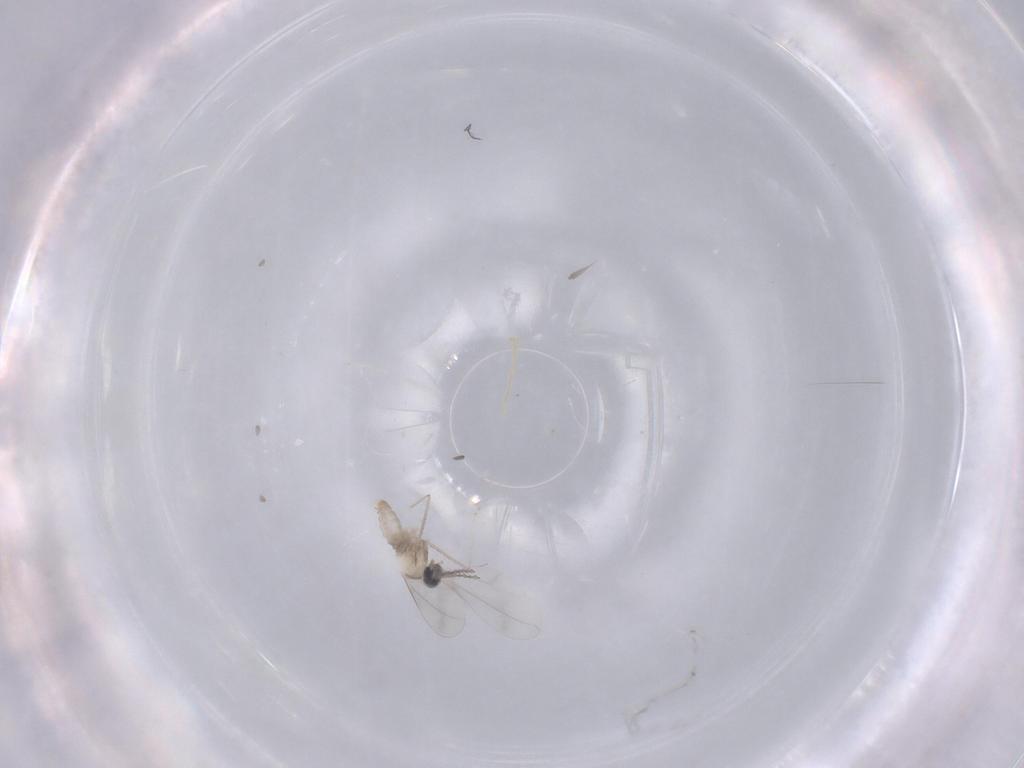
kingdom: Animalia
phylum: Arthropoda
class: Insecta
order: Diptera
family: Cecidomyiidae
